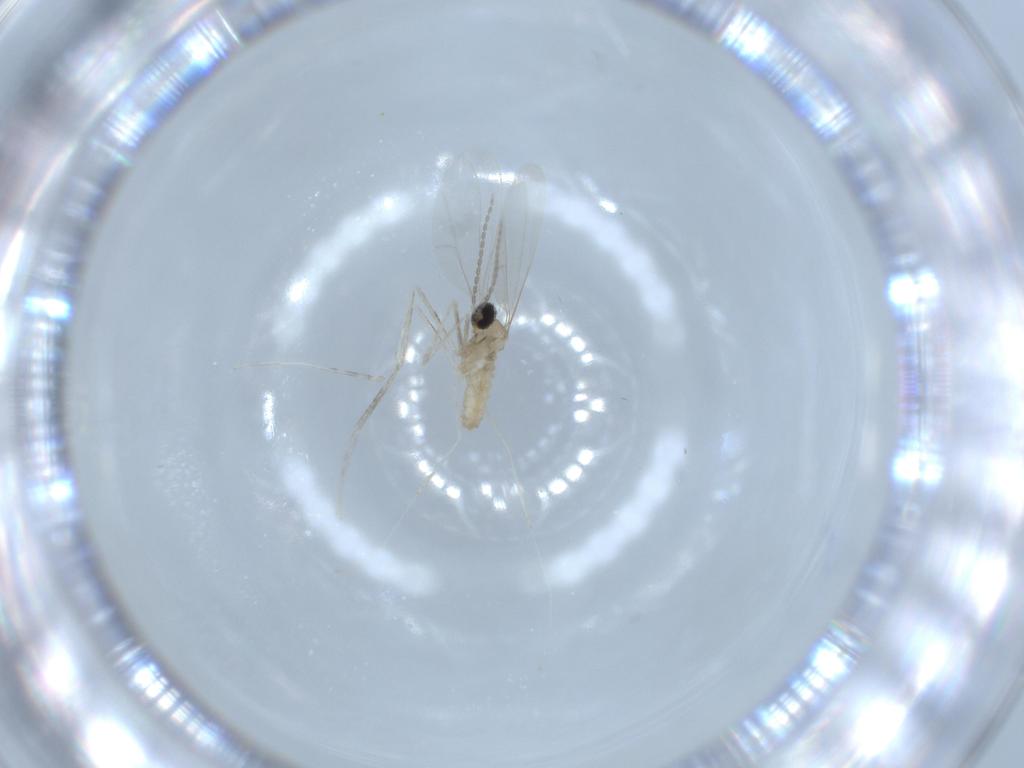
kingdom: Animalia
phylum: Arthropoda
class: Insecta
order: Diptera
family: Cecidomyiidae
